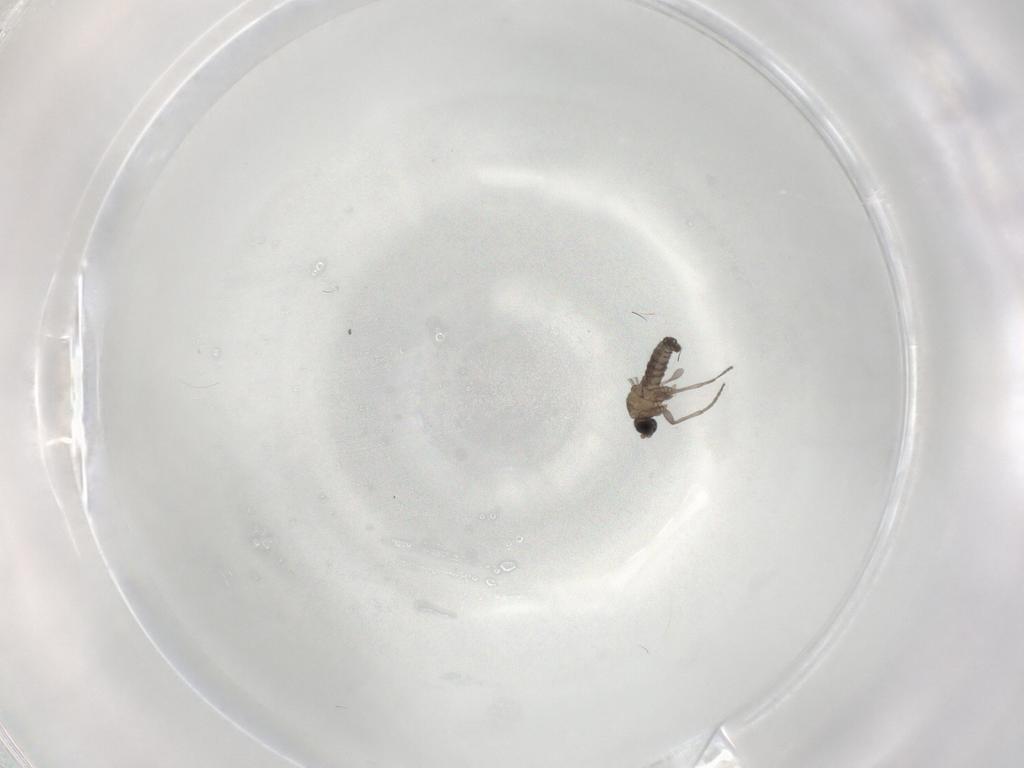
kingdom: Animalia
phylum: Arthropoda
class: Insecta
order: Diptera
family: Sciaridae
